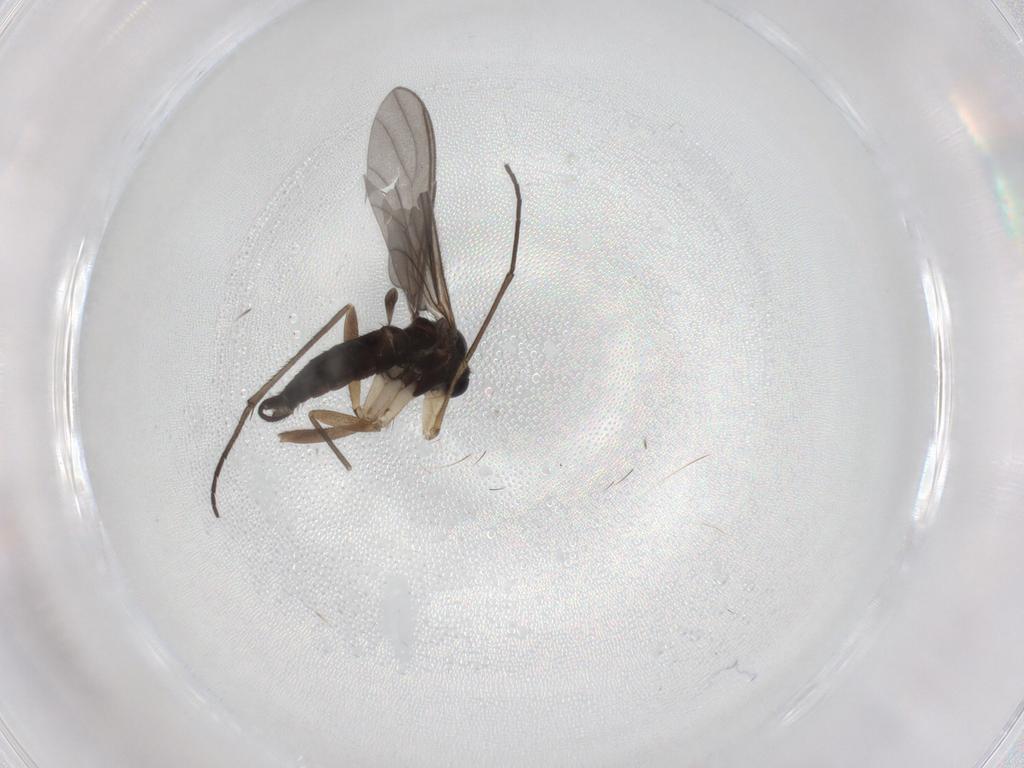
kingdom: Animalia
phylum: Arthropoda
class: Insecta
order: Diptera
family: Sciaridae
